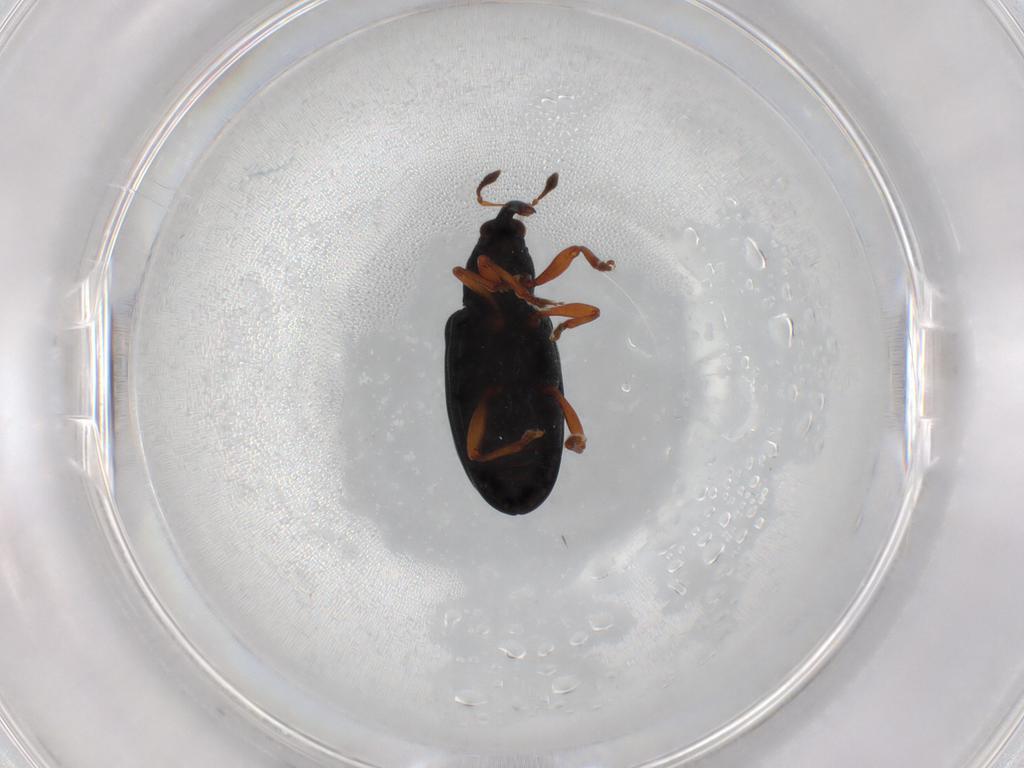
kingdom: Animalia
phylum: Arthropoda
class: Insecta
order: Coleoptera
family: Curculionidae
